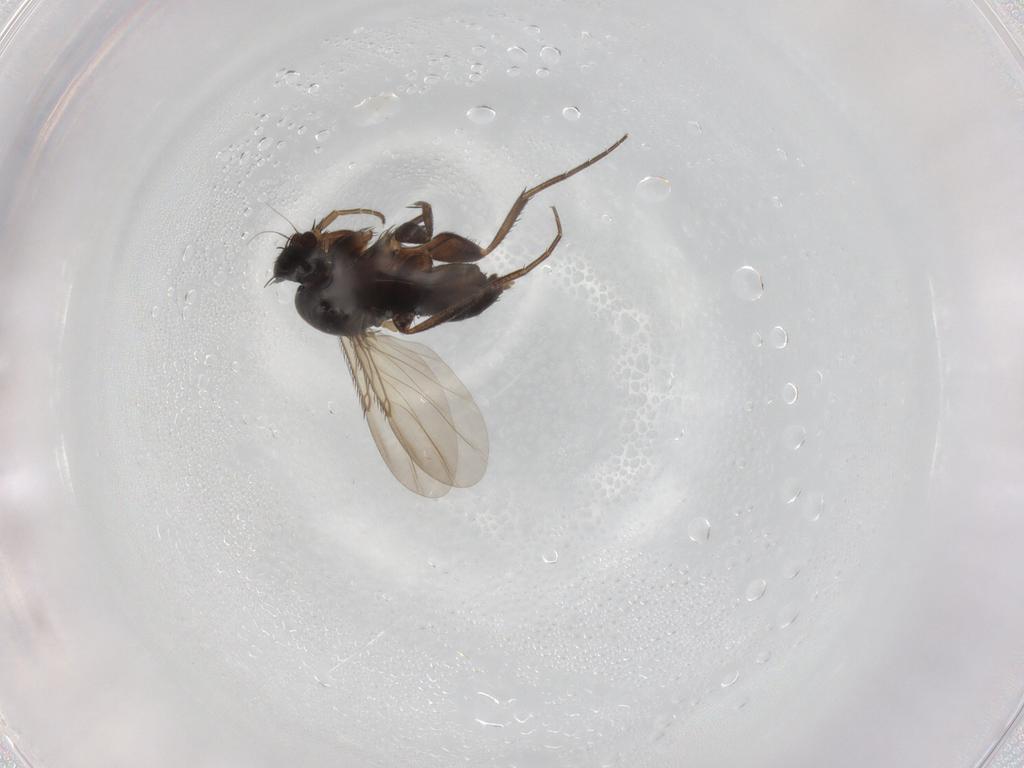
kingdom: Animalia
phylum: Arthropoda
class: Insecta
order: Diptera
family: Phoridae
